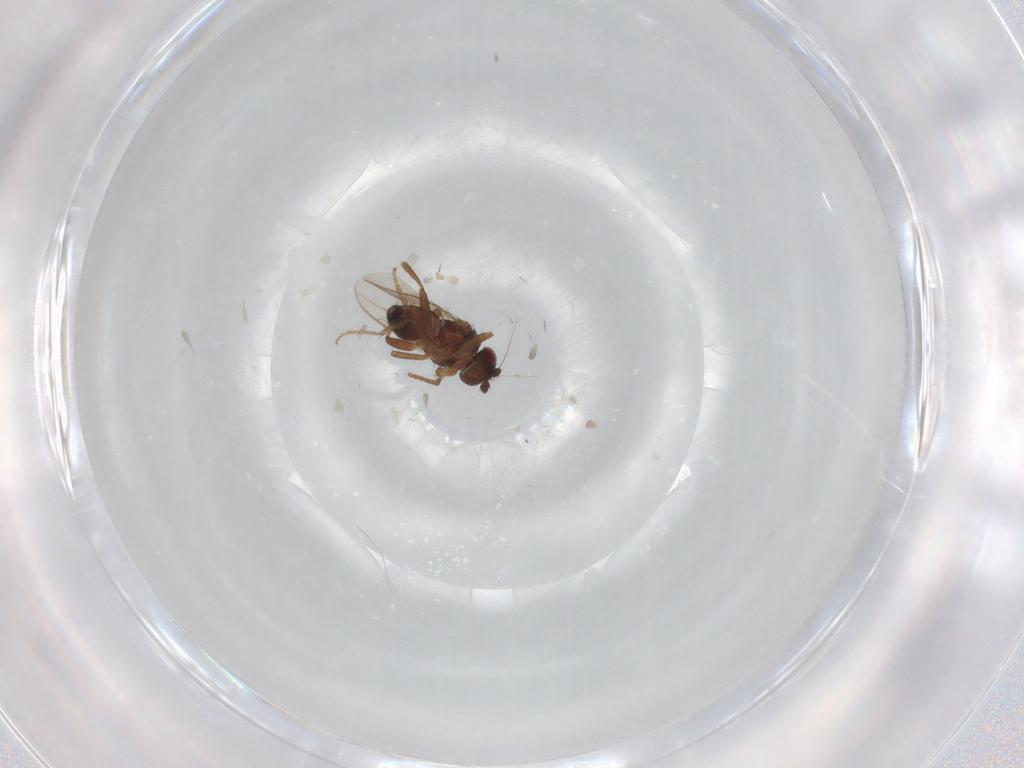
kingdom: Animalia
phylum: Arthropoda
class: Insecta
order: Diptera
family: Sphaeroceridae
